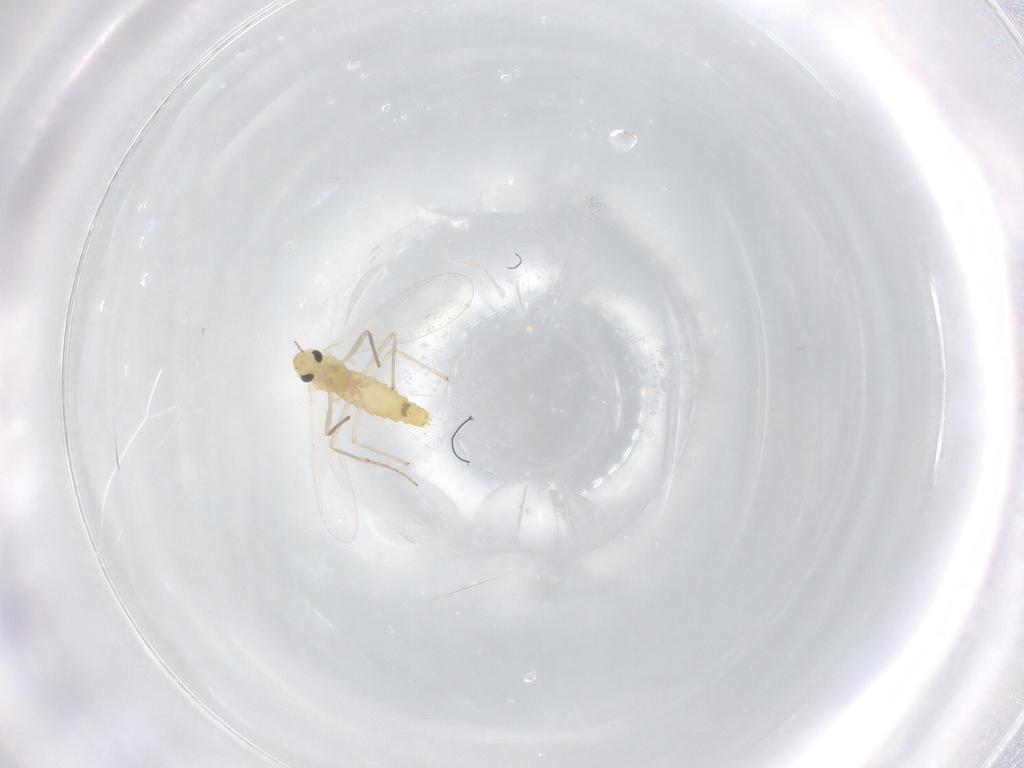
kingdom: Animalia
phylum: Arthropoda
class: Insecta
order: Diptera
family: Chironomidae
